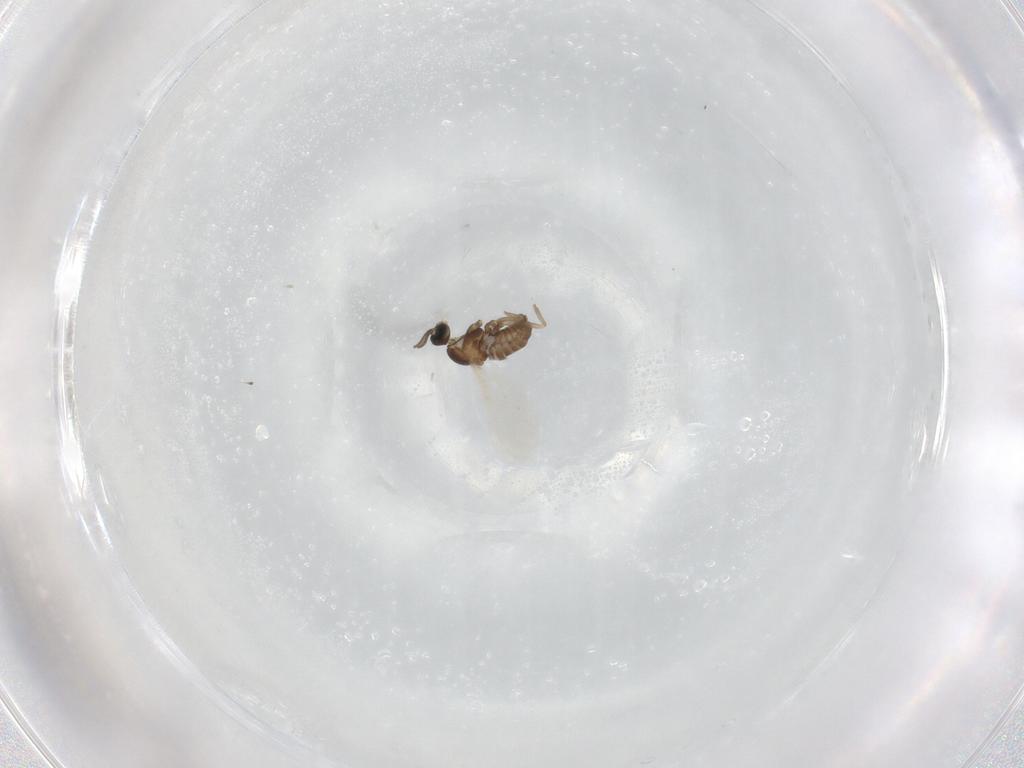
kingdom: Animalia
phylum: Arthropoda
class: Insecta
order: Diptera
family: Cecidomyiidae
